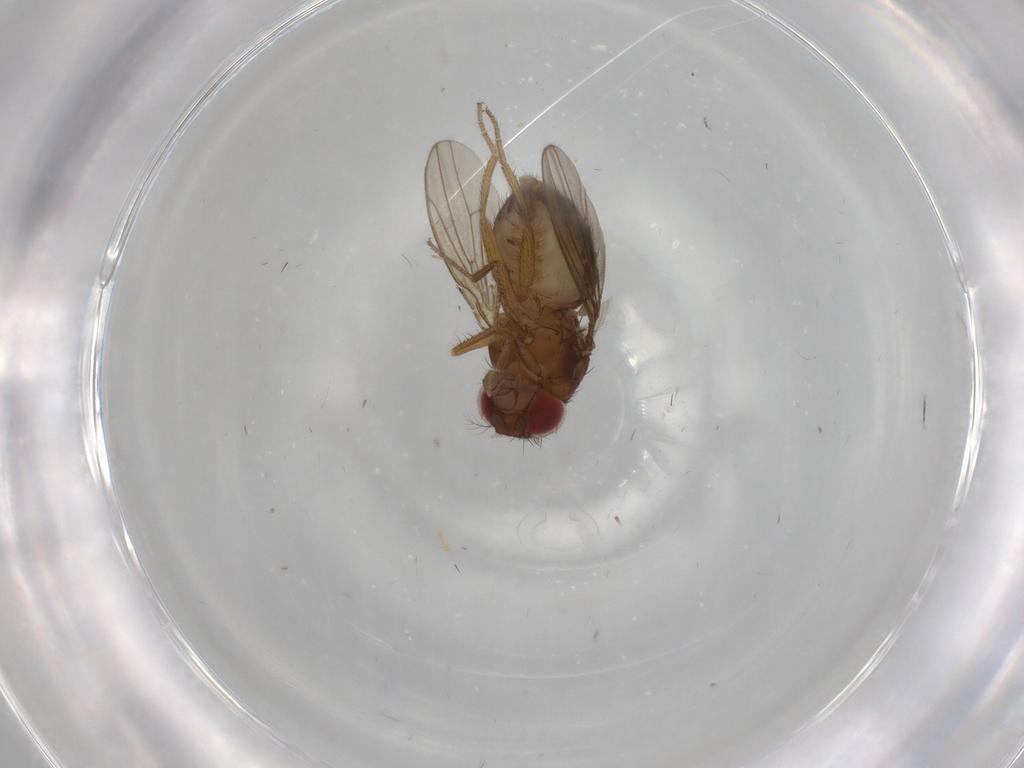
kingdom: Animalia
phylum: Arthropoda
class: Insecta
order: Diptera
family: Drosophilidae
